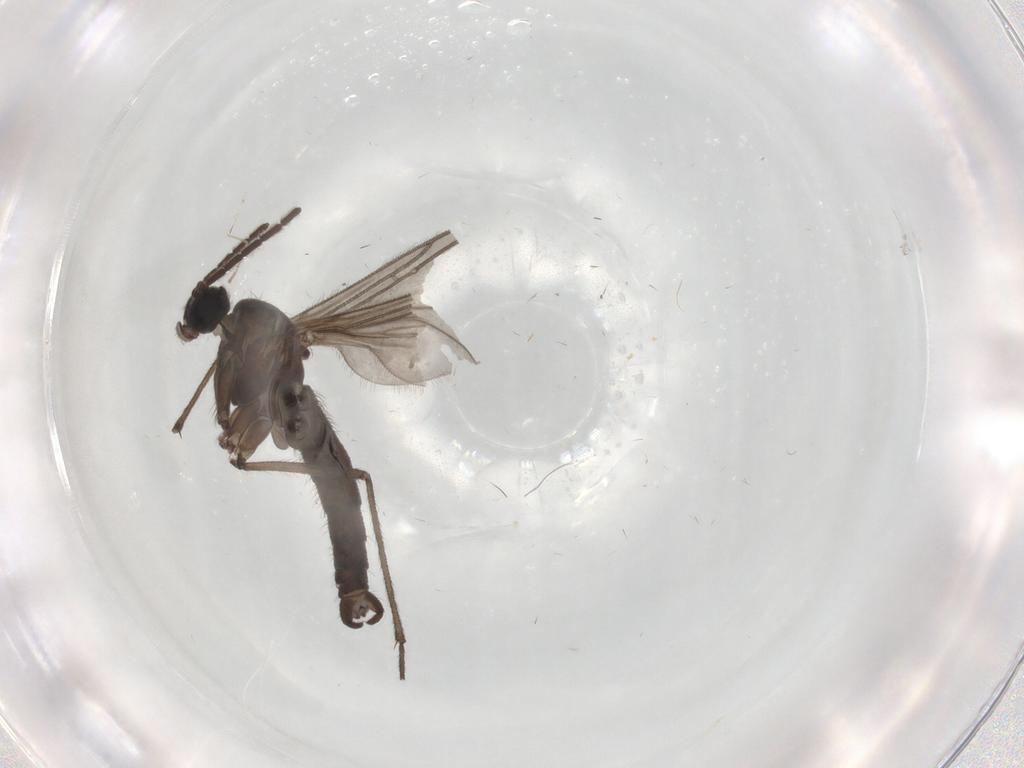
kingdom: Animalia
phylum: Arthropoda
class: Insecta
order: Diptera
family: Sciaridae
